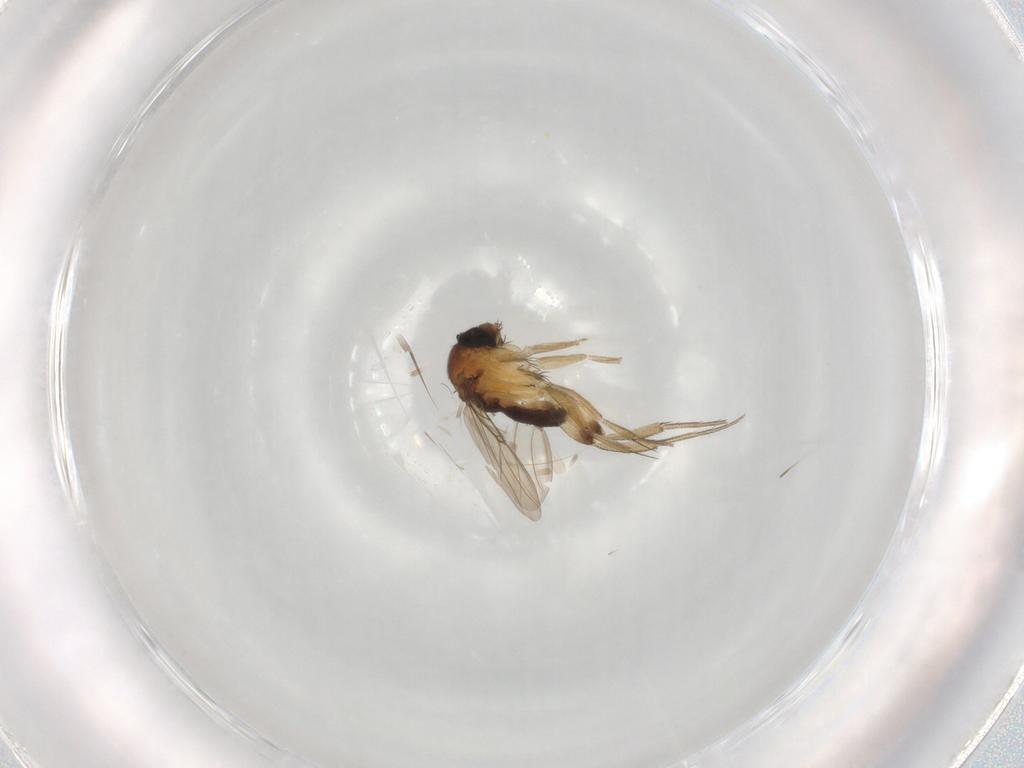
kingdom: Animalia
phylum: Arthropoda
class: Insecta
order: Diptera
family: Phoridae
